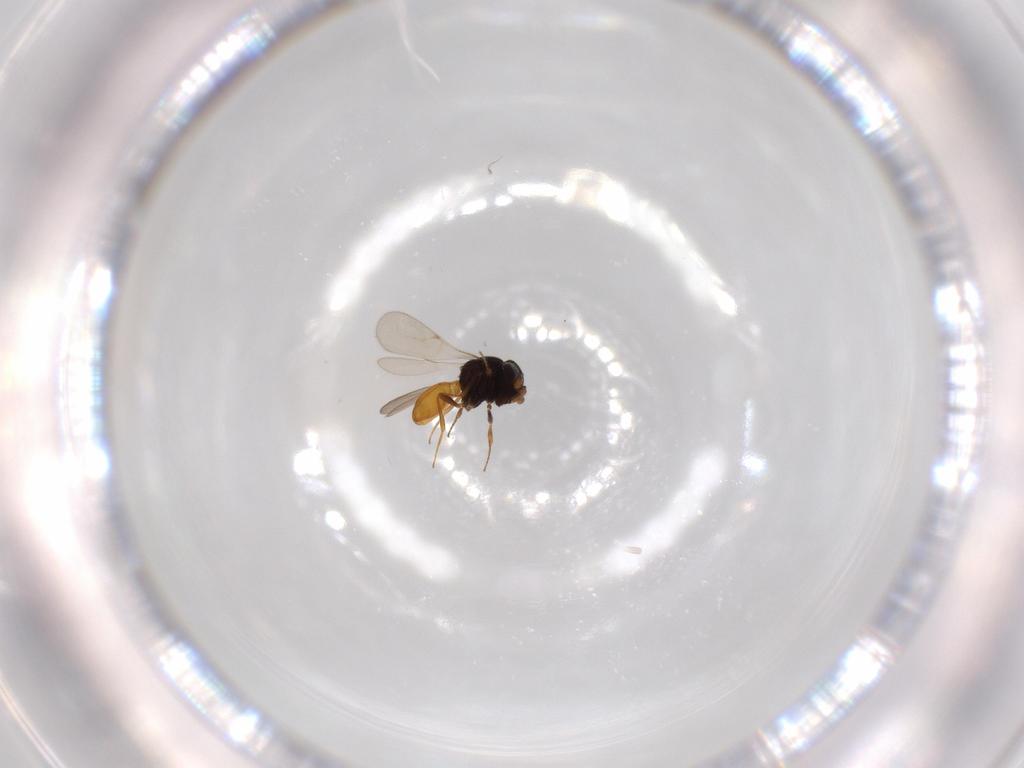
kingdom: Animalia
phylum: Arthropoda
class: Insecta
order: Hymenoptera
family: Scelionidae
